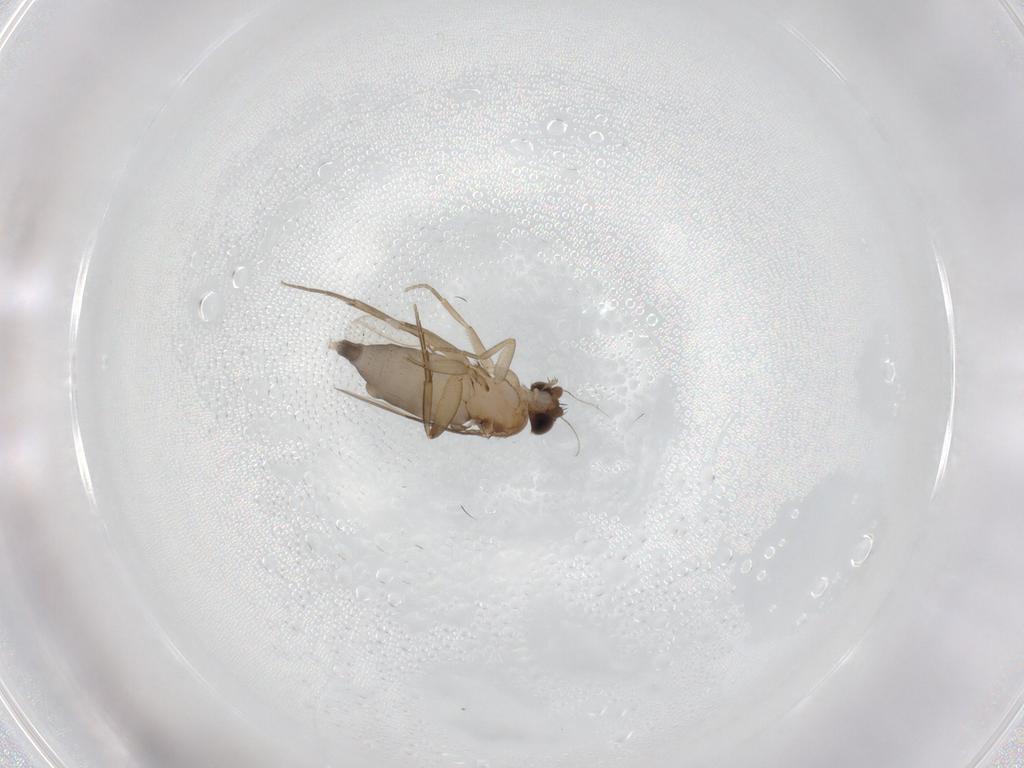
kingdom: Animalia
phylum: Arthropoda
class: Insecta
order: Diptera
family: Phoridae
